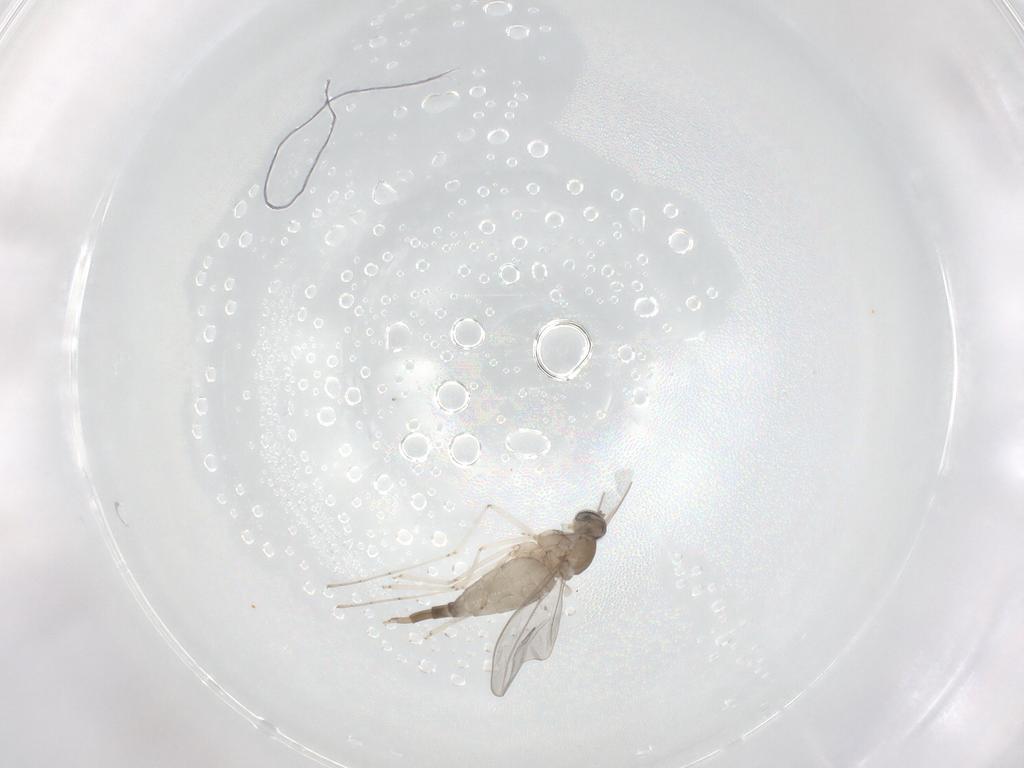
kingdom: Animalia
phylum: Arthropoda
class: Insecta
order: Diptera
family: Cecidomyiidae
